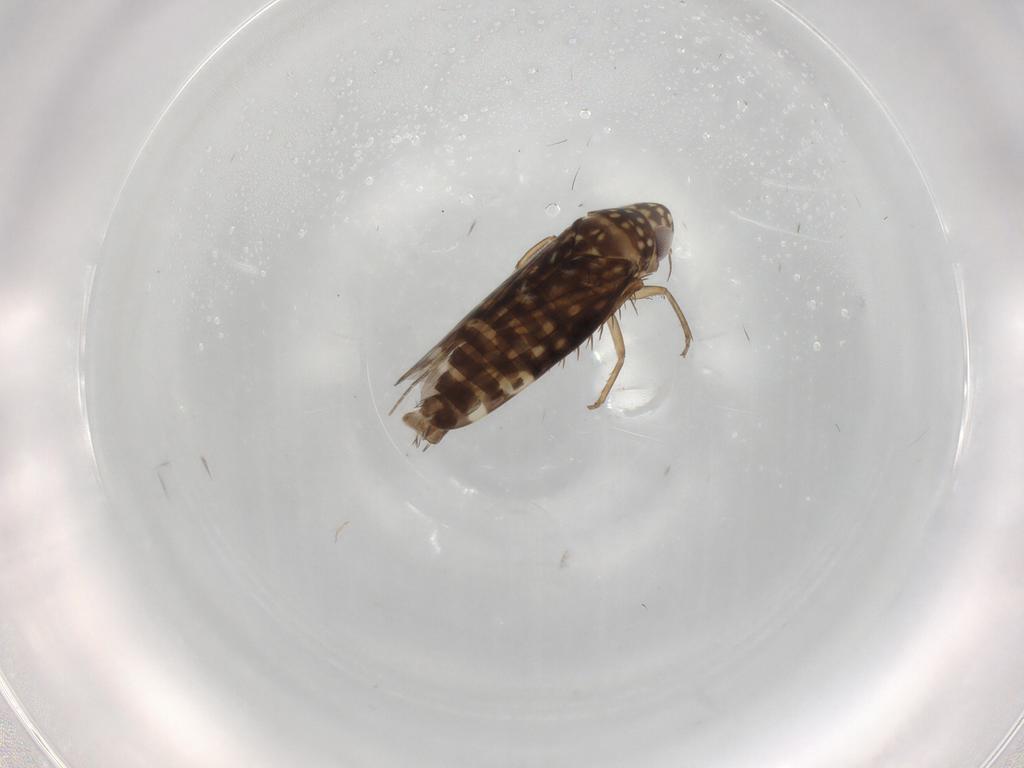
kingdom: Animalia
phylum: Arthropoda
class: Insecta
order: Hemiptera
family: Cicadellidae
